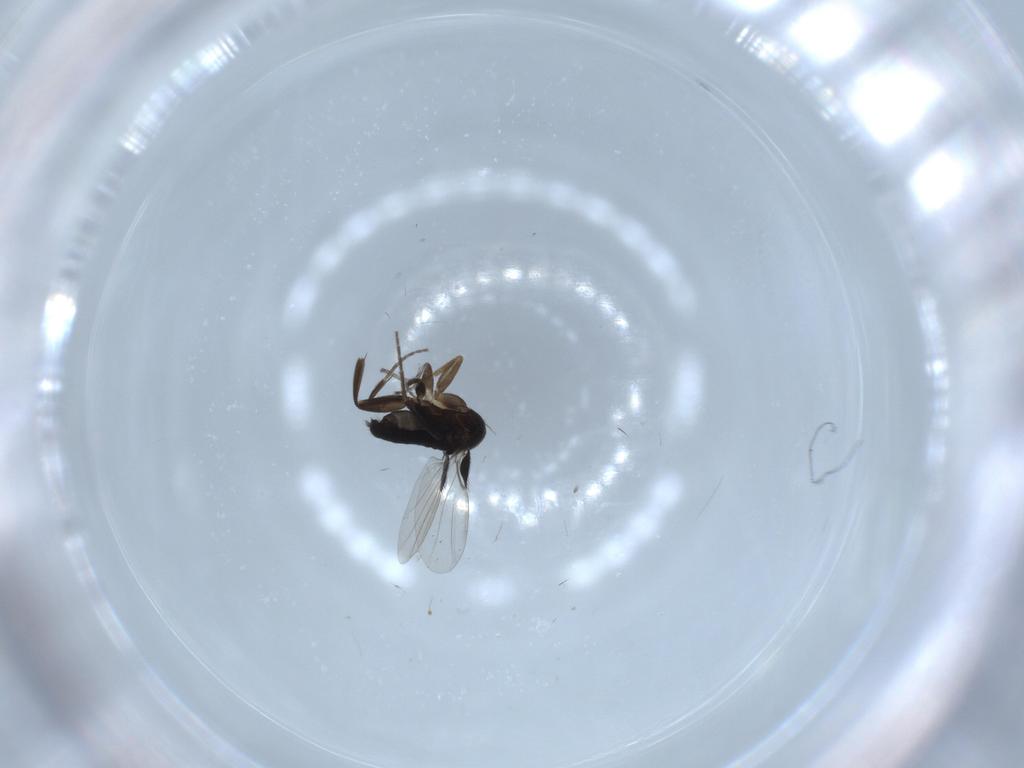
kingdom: Animalia
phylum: Arthropoda
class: Insecta
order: Diptera
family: Phoridae
